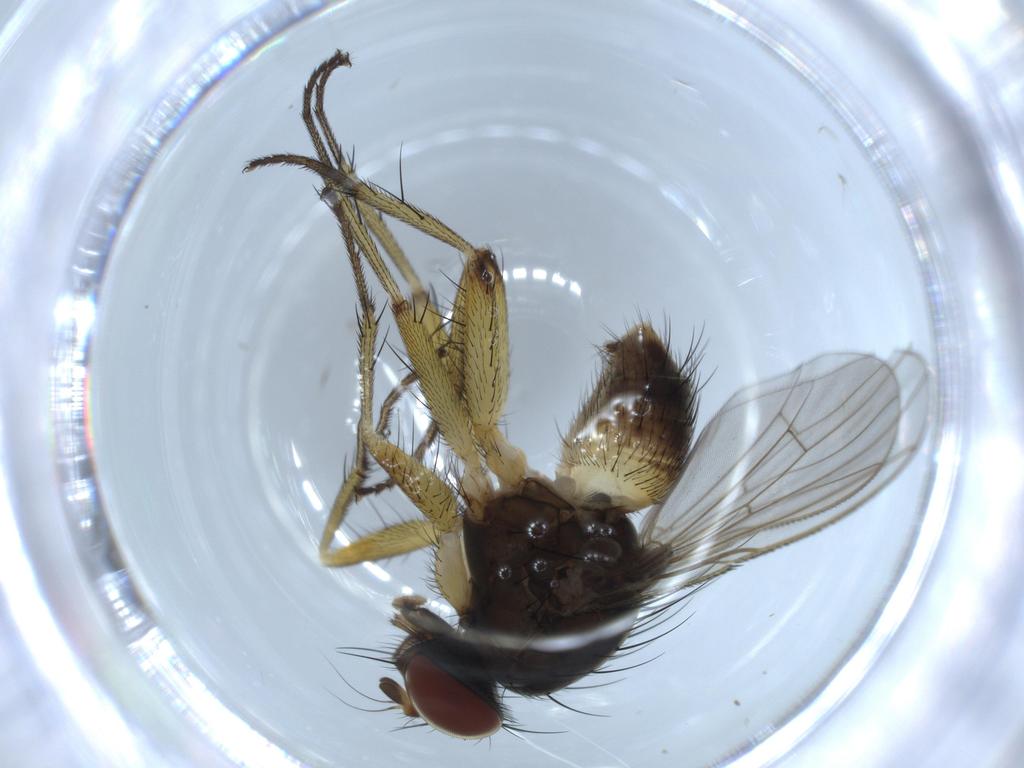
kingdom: Animalia
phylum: Arthropoda
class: Insecta
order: Diptera
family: Muscidae
